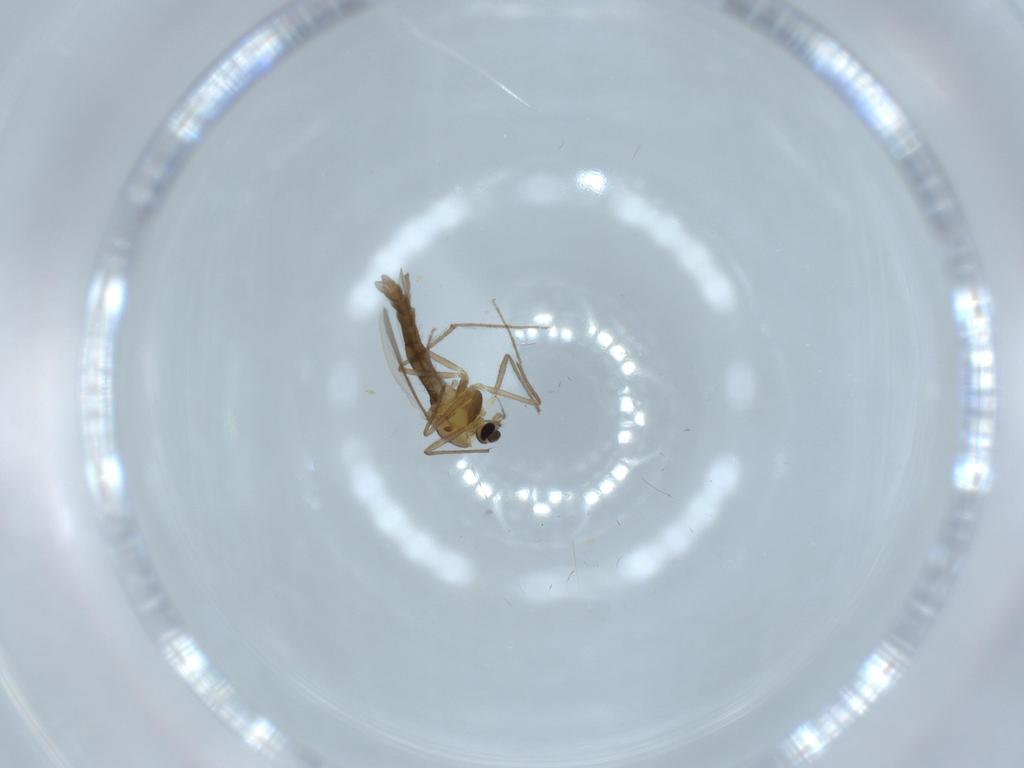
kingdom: Animalia
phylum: Arthropoda
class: Insecta
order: Diptera
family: Chironomidae
